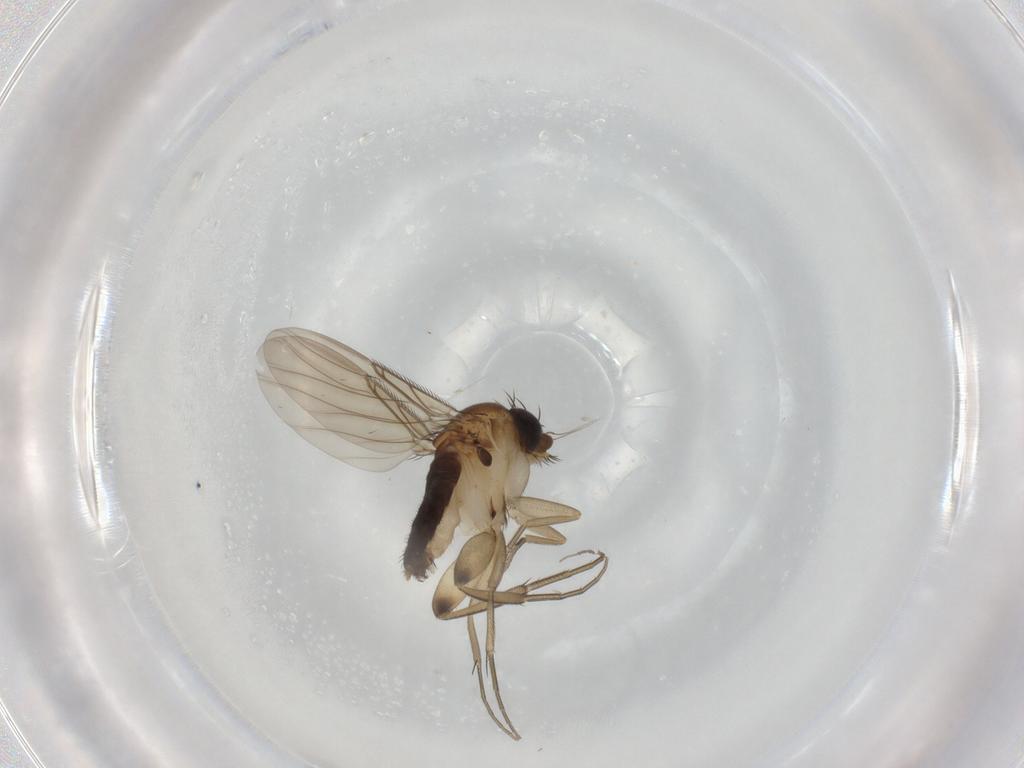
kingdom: Animalia
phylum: Arthropoda
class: Insecta
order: Diptera
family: Phoridae
